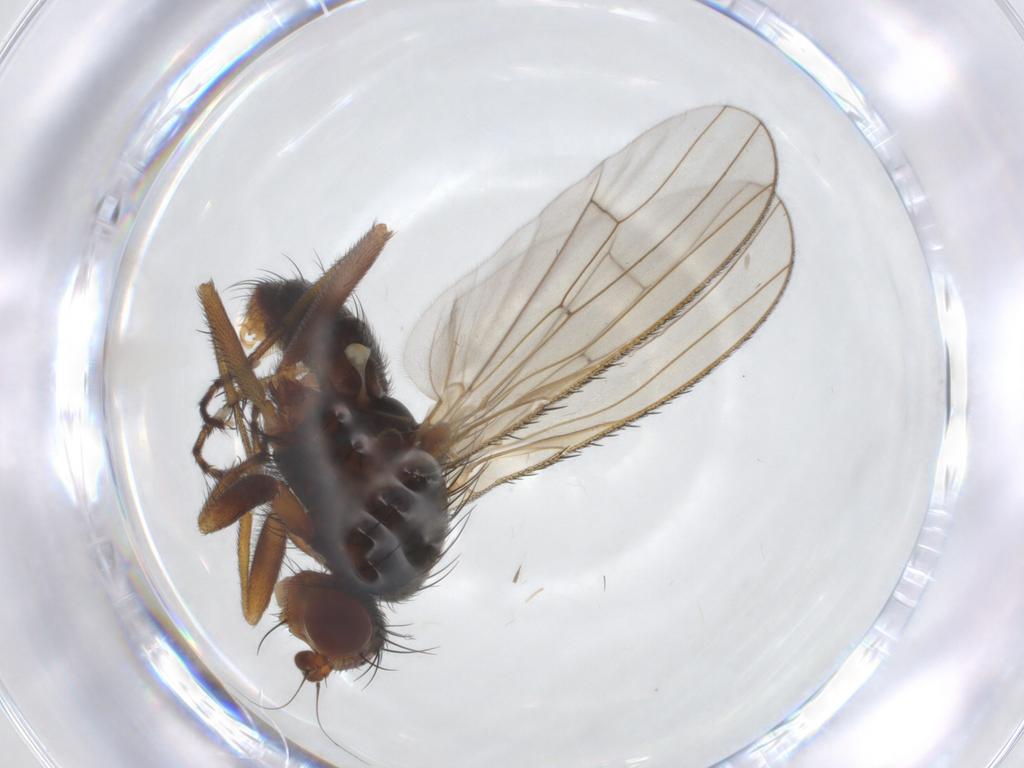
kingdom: Animalia
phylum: Arthropoda
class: Insecta
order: Diptera
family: Heleomyzidae
